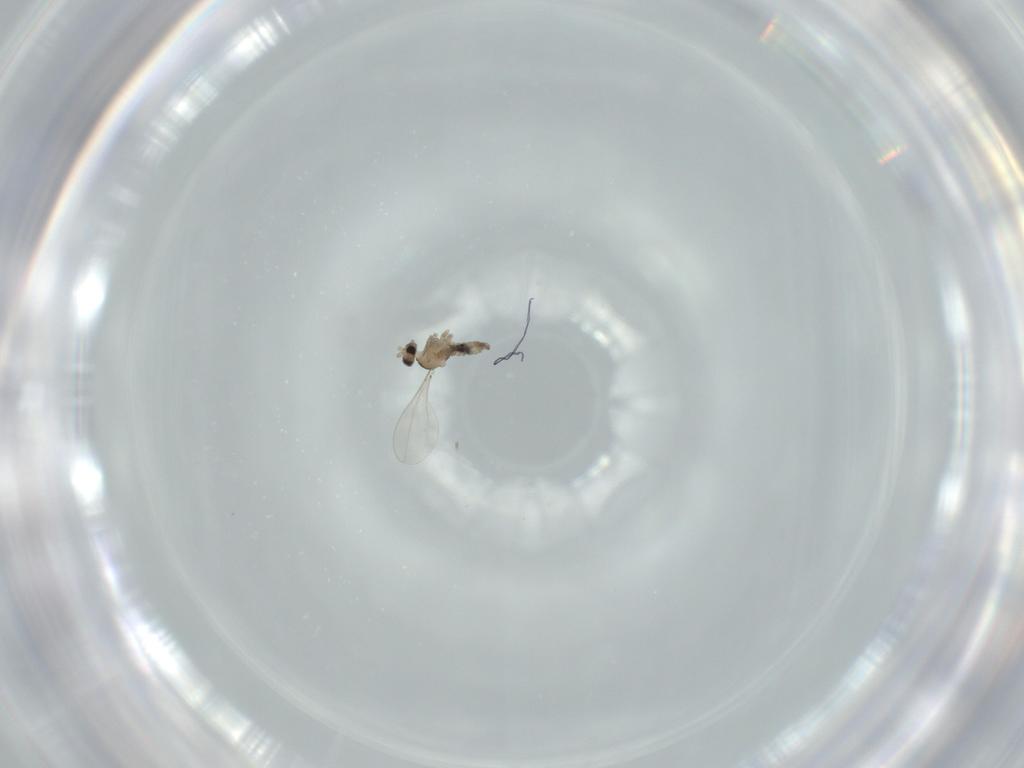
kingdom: Animalia
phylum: Arthropoda
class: Insecta
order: Diptera
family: Cecidomyiidae
